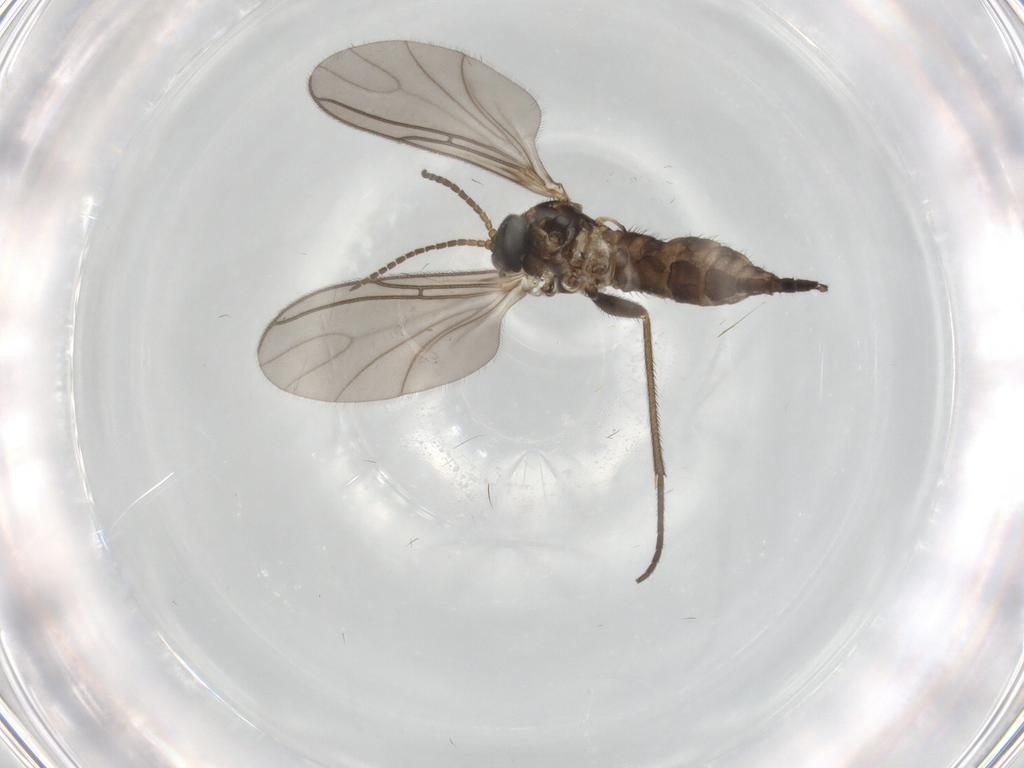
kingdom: Animalia
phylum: Arthropoda
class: Insecta
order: Diptera
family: Sciaridae
